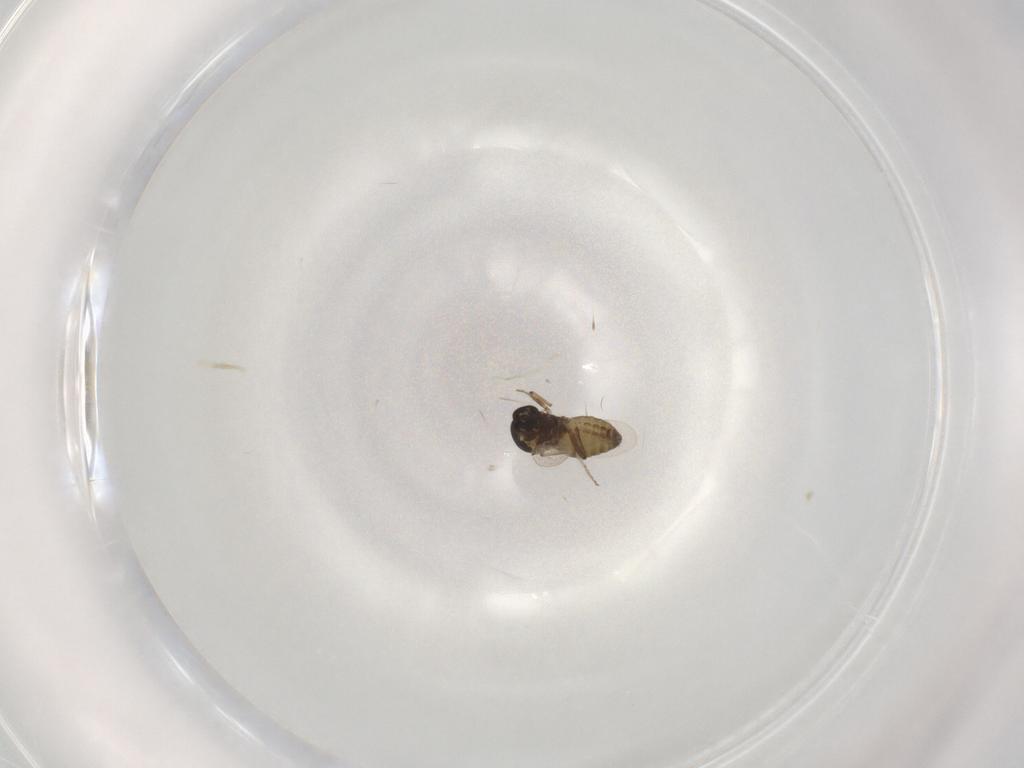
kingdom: Animalia
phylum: Arthropoda
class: Insecta
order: Diptera
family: Ceratopogonidae
